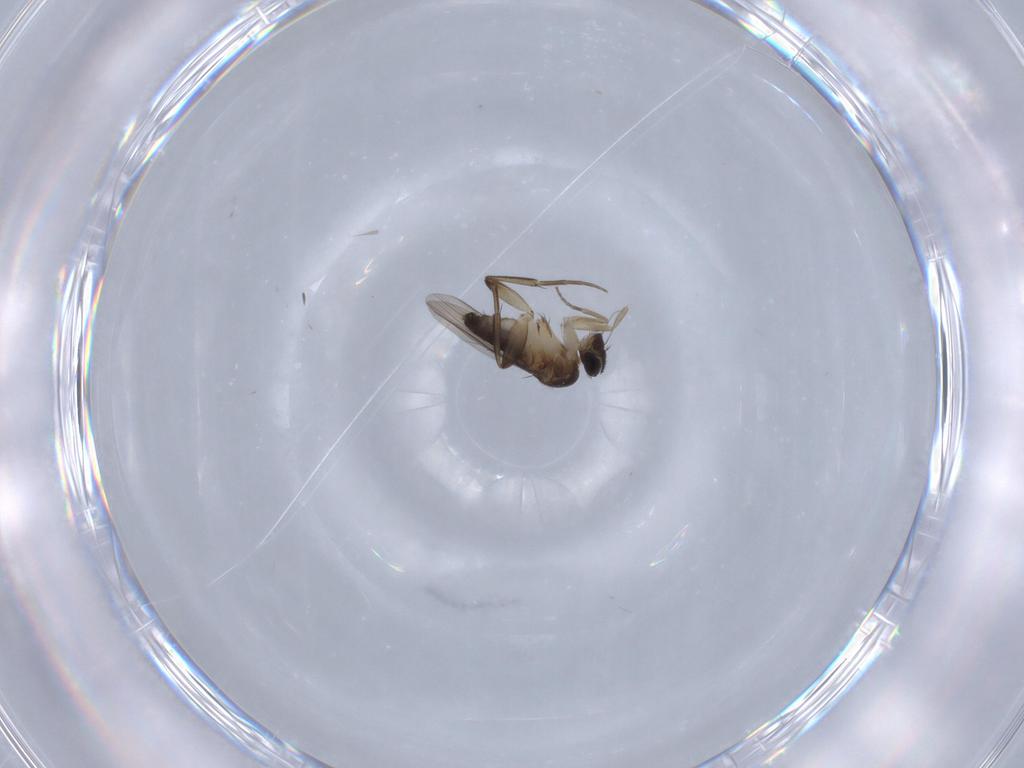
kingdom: Animalia
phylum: Arthropoda
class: Insecta
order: Diptera
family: Phoridae
